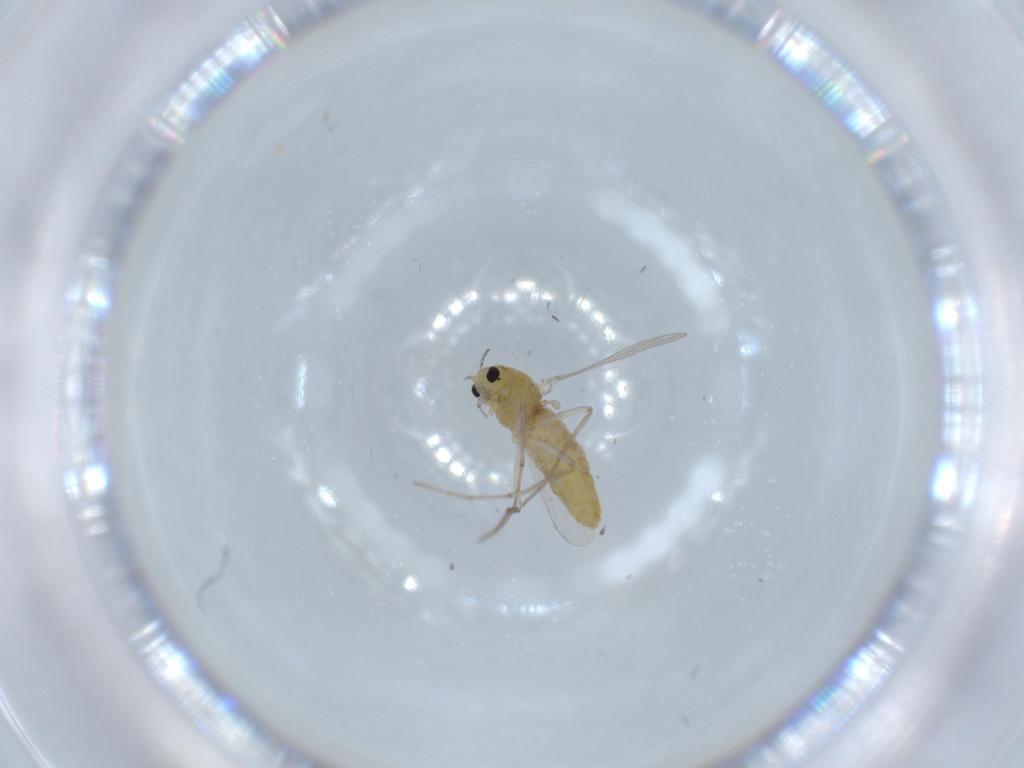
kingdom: Animalia
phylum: Arthropoda
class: Insecta
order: Diptera
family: Chironomidae
